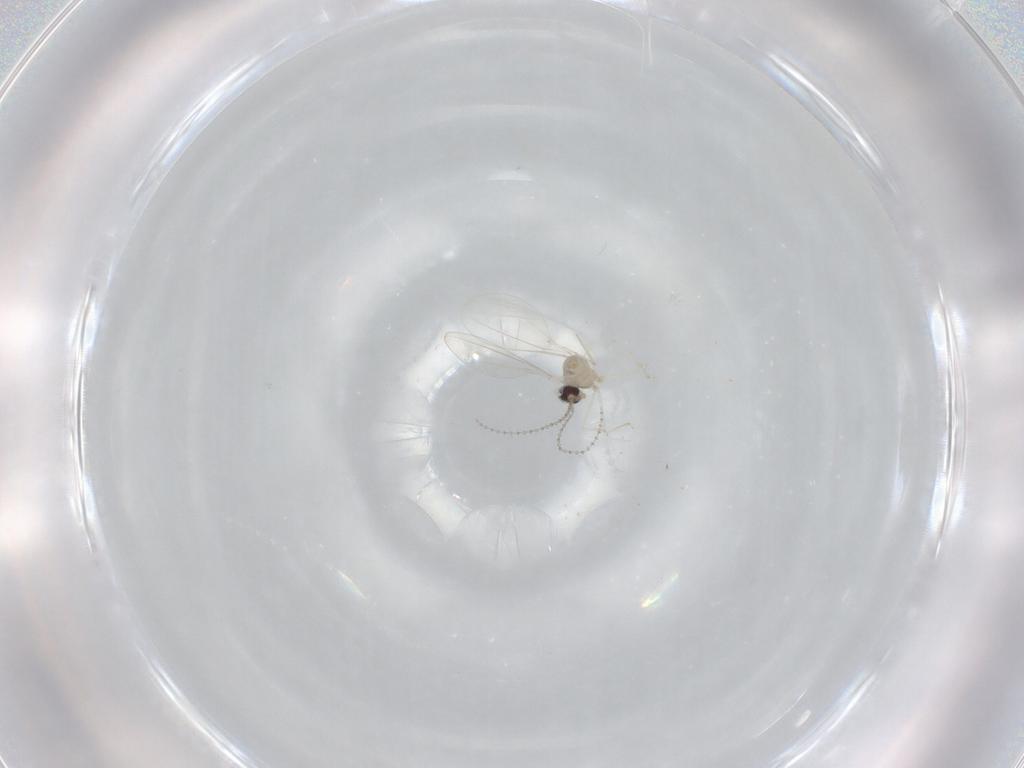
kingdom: Animalia
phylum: Arthropoda
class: Insecta
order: Diptera
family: Cecidomyiidae
